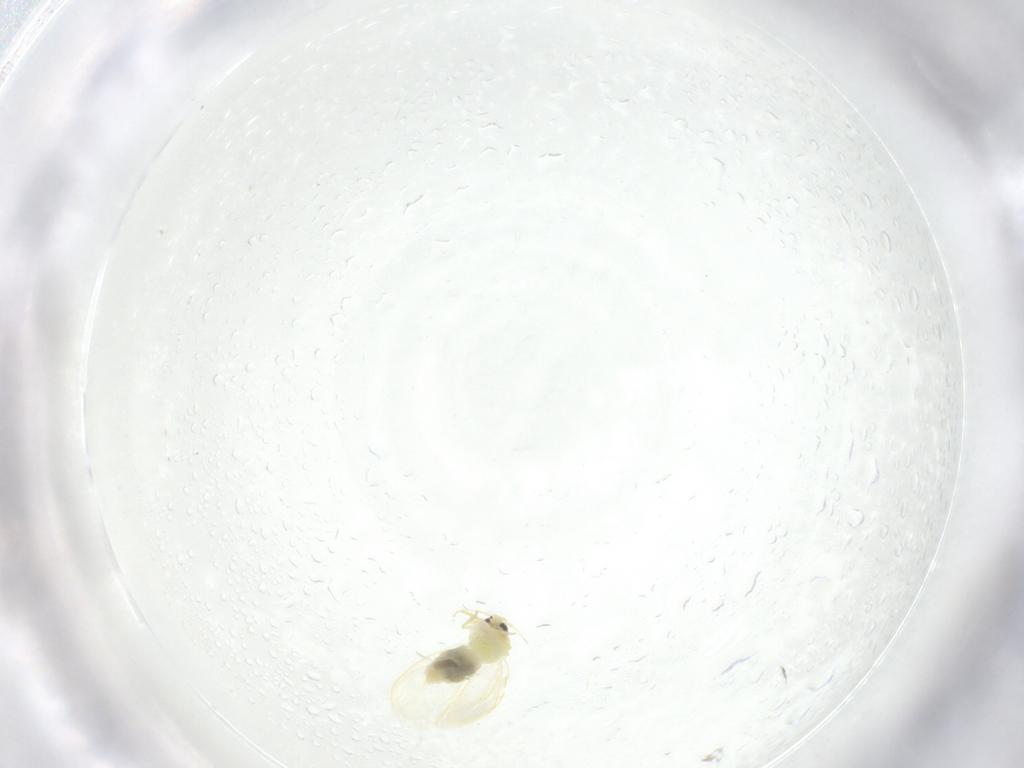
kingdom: Animalia
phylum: Arthropoda
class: Insecta
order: Hemiptera
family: Aleyrodidae
